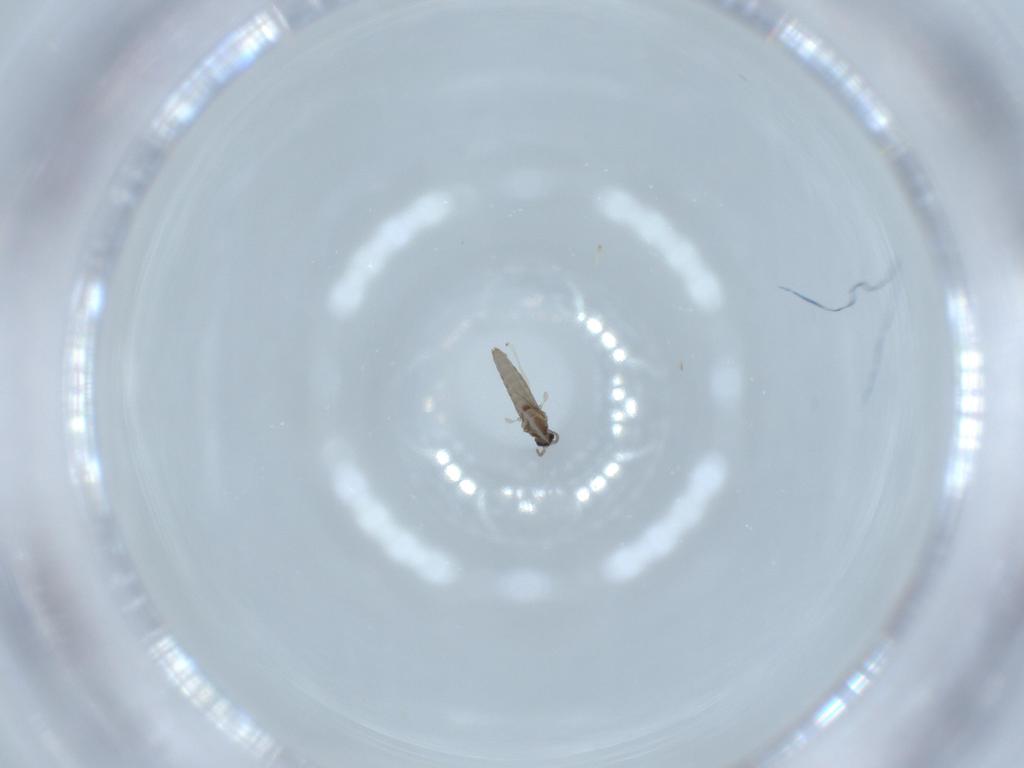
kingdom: Animalia
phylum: Arthropoda
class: Insecta
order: Diptera
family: Cecidomyiidae
